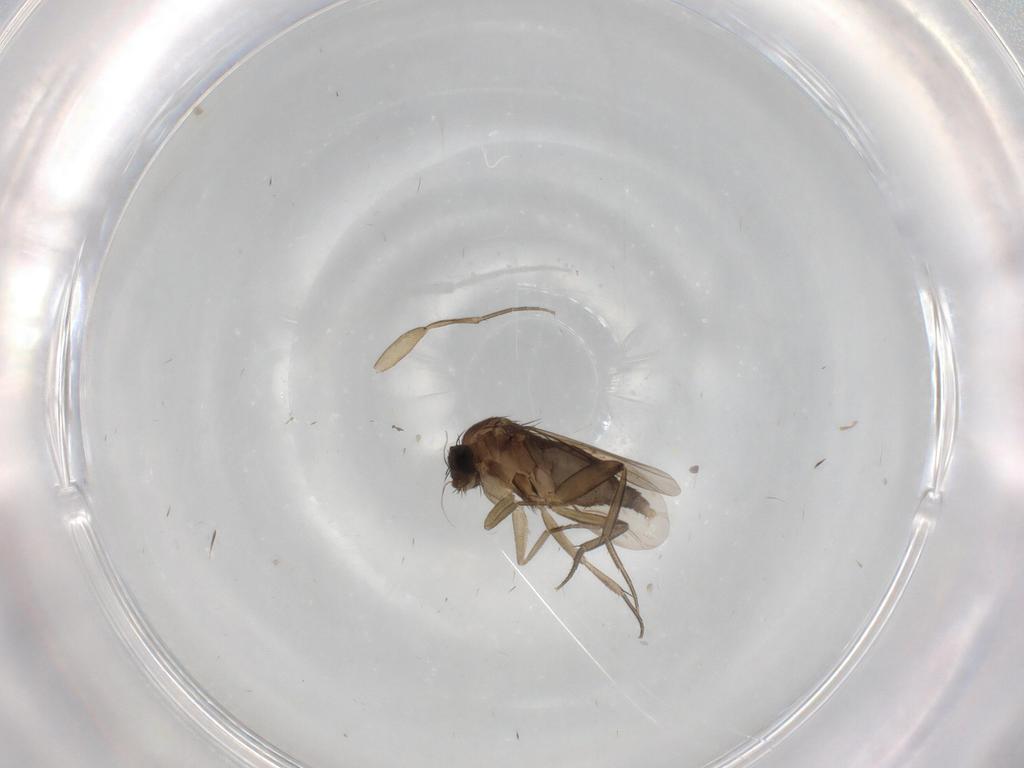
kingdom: Animalia
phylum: Arthropoda
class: Insecta
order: Diptera
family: Phoridae
